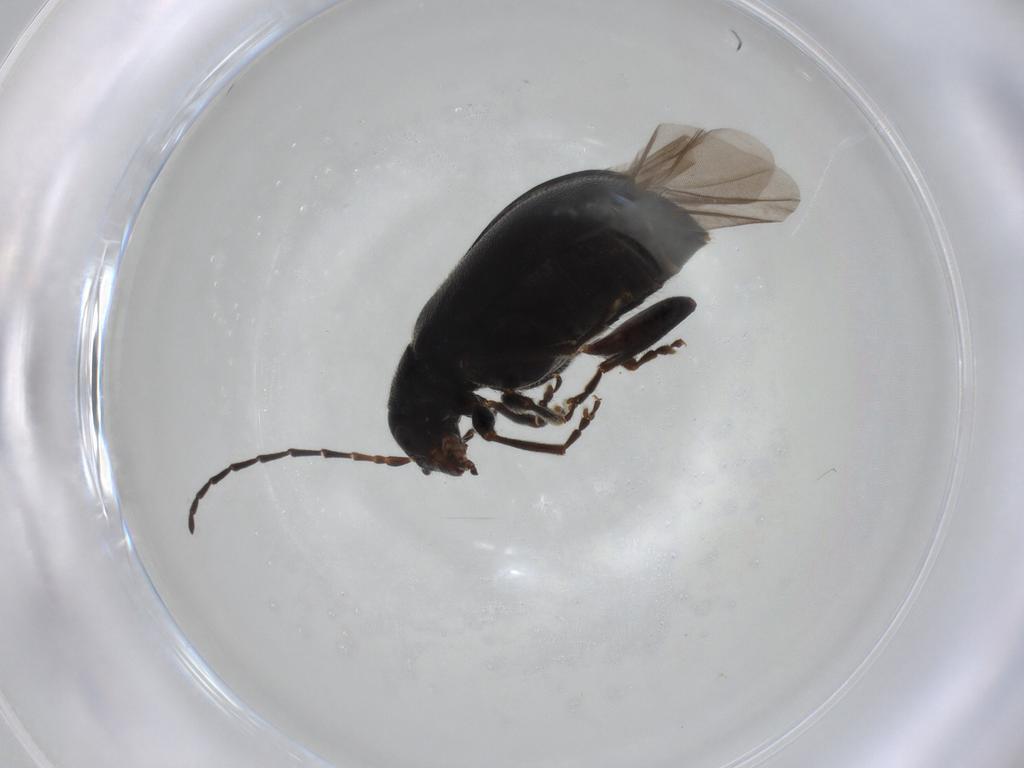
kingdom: Animalia
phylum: Arthropoda
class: Insecta
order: Coleoptera
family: Chrysomelidae
